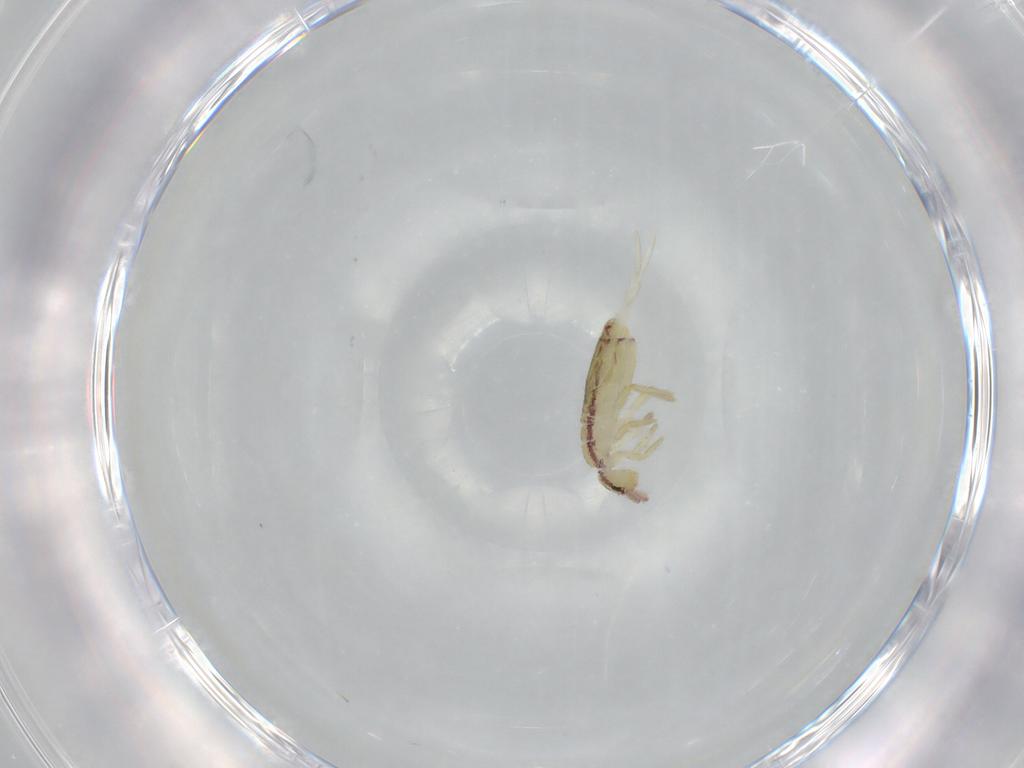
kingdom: Animalia
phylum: Arthropoda
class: Collembola
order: Entomobryomorpha
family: Entomobryidae
